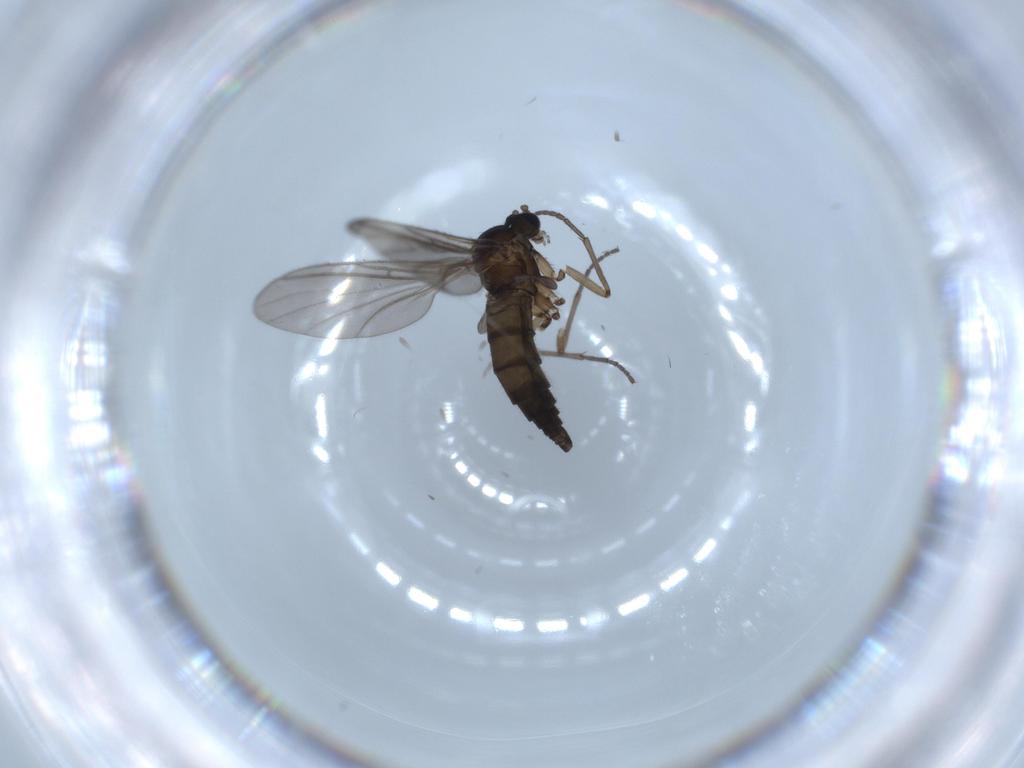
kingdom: Animalia
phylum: Arthropoda
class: Insecta
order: Diptera
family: Sciaridae
